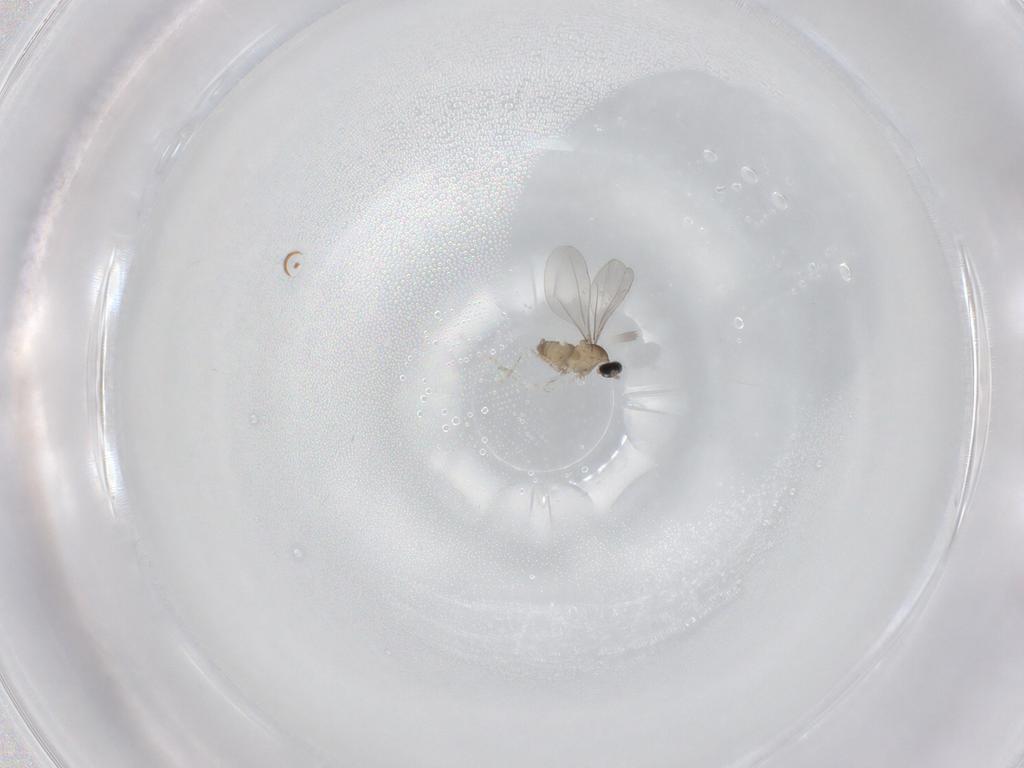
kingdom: Animalia
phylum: Arthropoda
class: Insecta
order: Diptera
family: Cecidomyiidae
